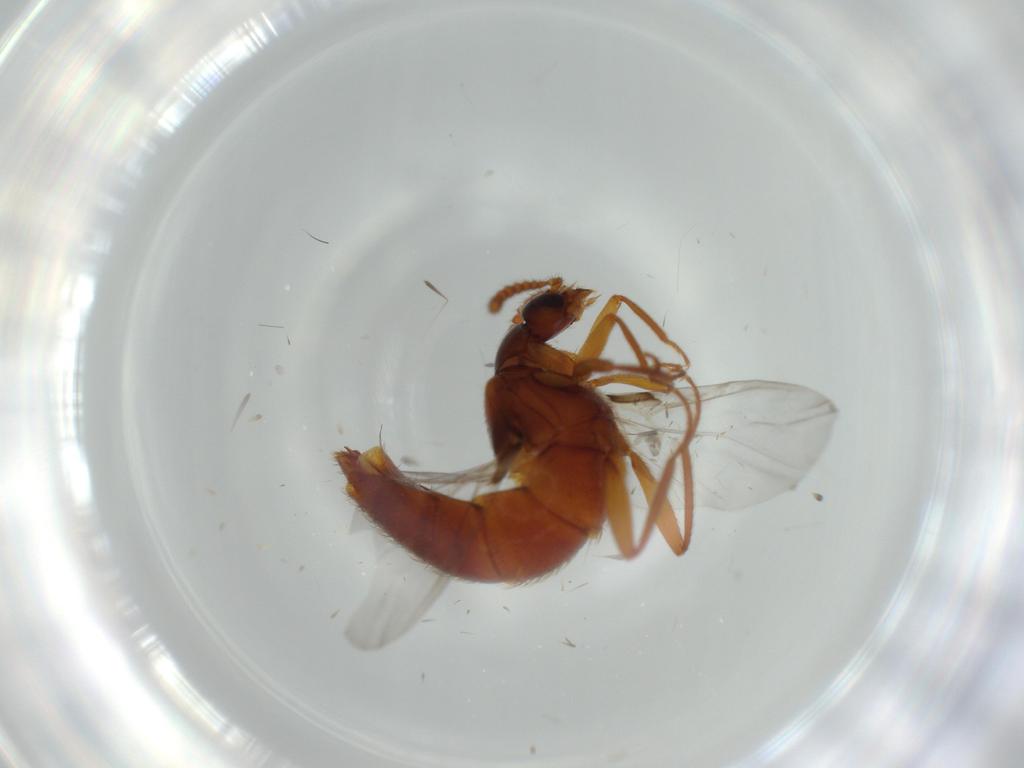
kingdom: Animalia
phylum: Arthropoda
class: Insecta
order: Coleoptera
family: Staphylinidae
